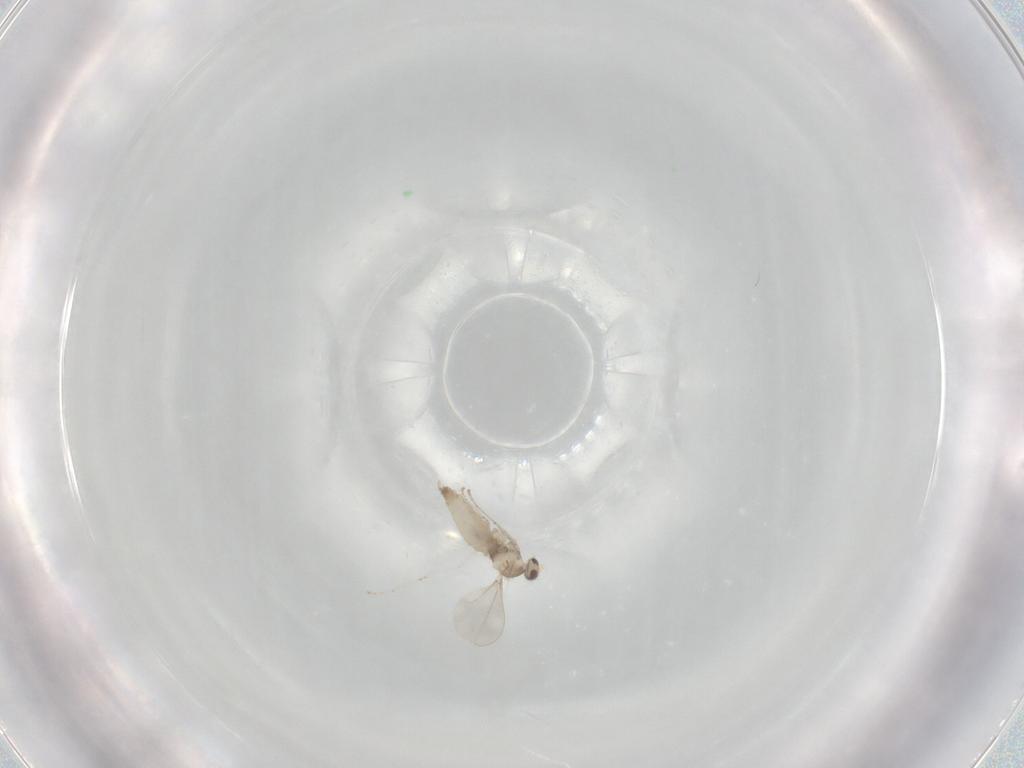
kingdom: Animalia
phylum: Arthropoda
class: Insecta
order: Diptera
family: Cecidomyiidae
